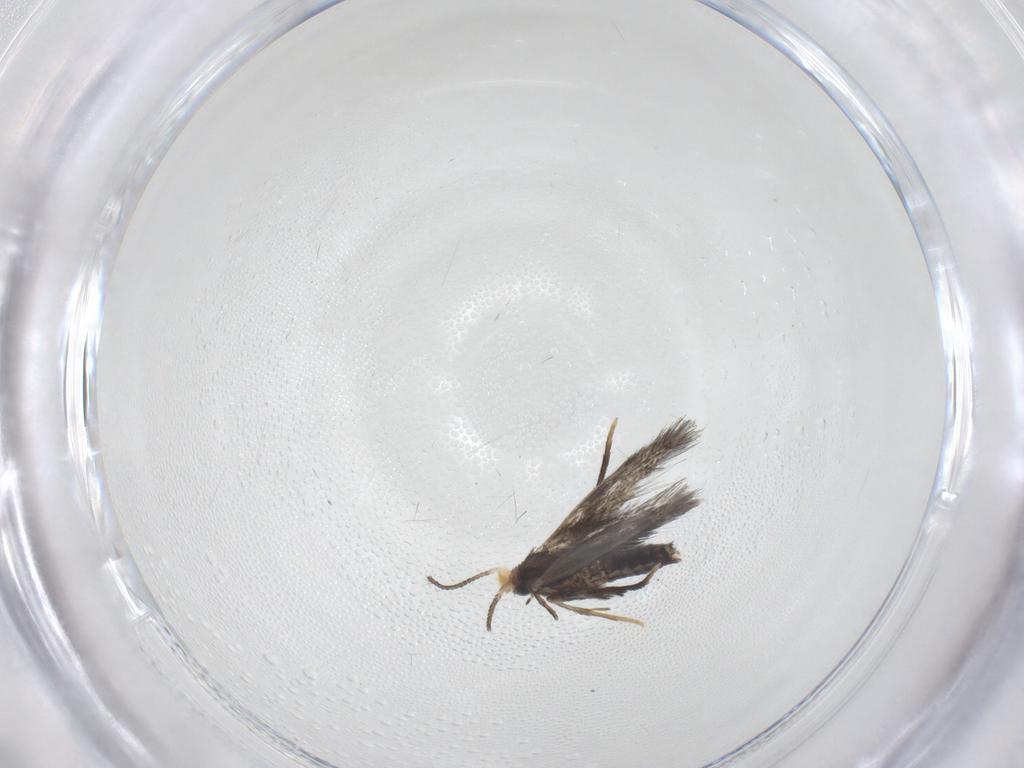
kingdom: Animalia
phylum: Arthropoda
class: Insecta
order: Lepidoptera
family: Nepticulidae
